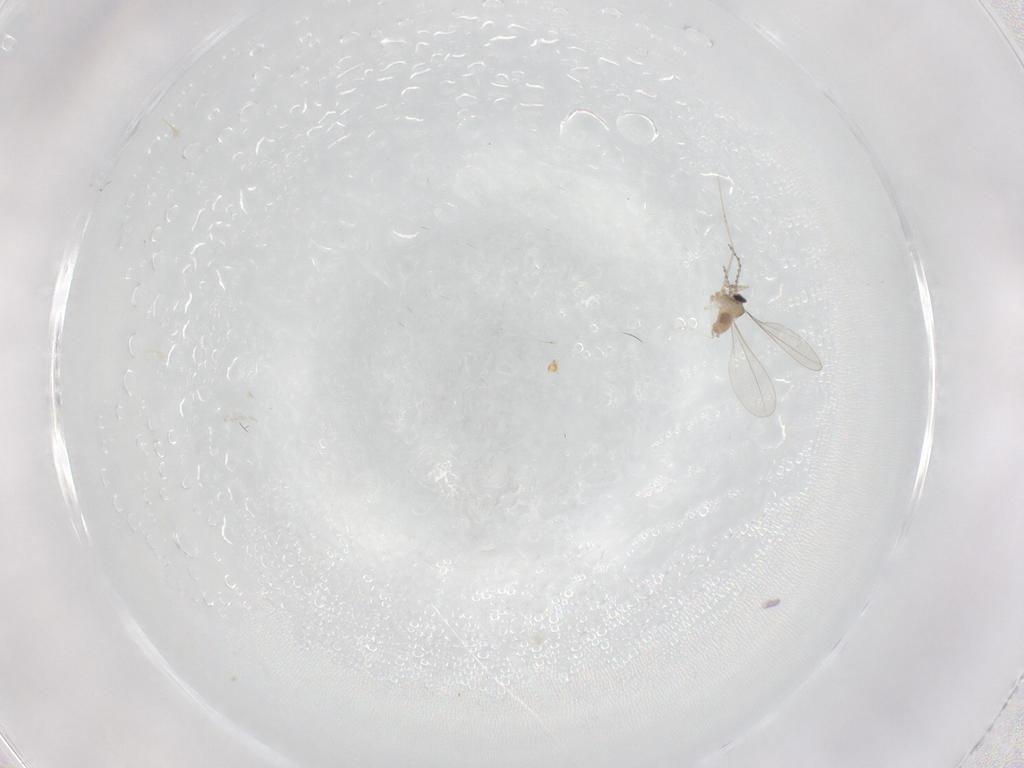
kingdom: Animalia
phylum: Arthropoda
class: Insecta
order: Diptera
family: Cecidomyiidae
